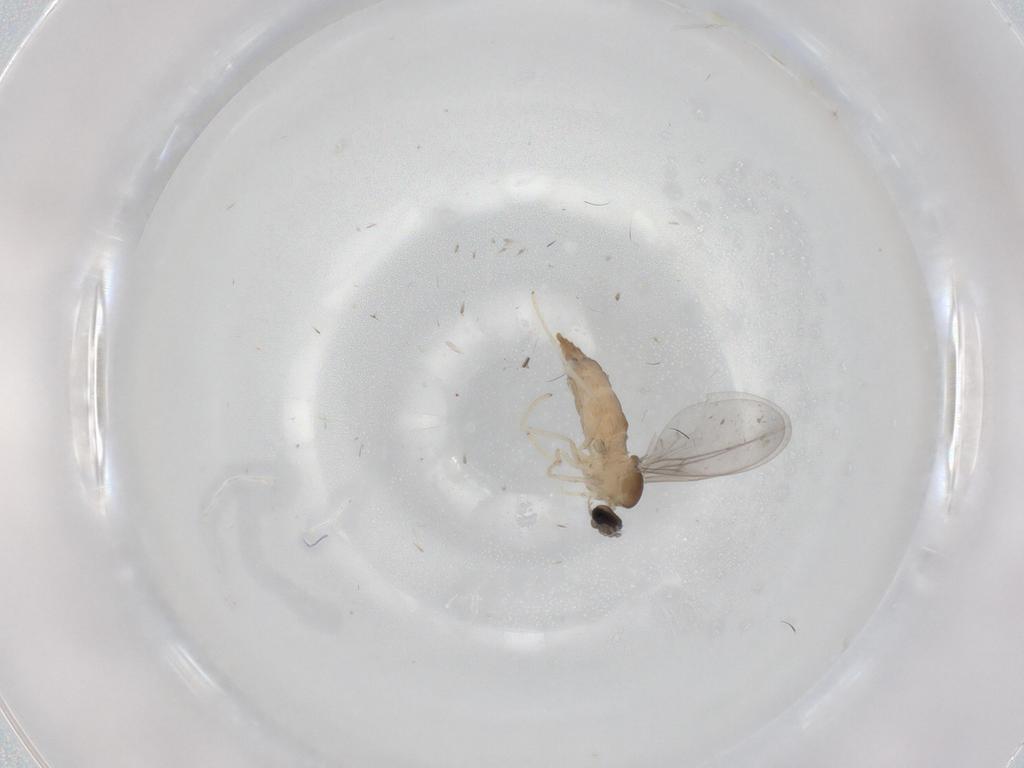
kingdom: Animalia
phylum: Arthropoda
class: Insecta
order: Diptera
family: Cecidomyiidae
